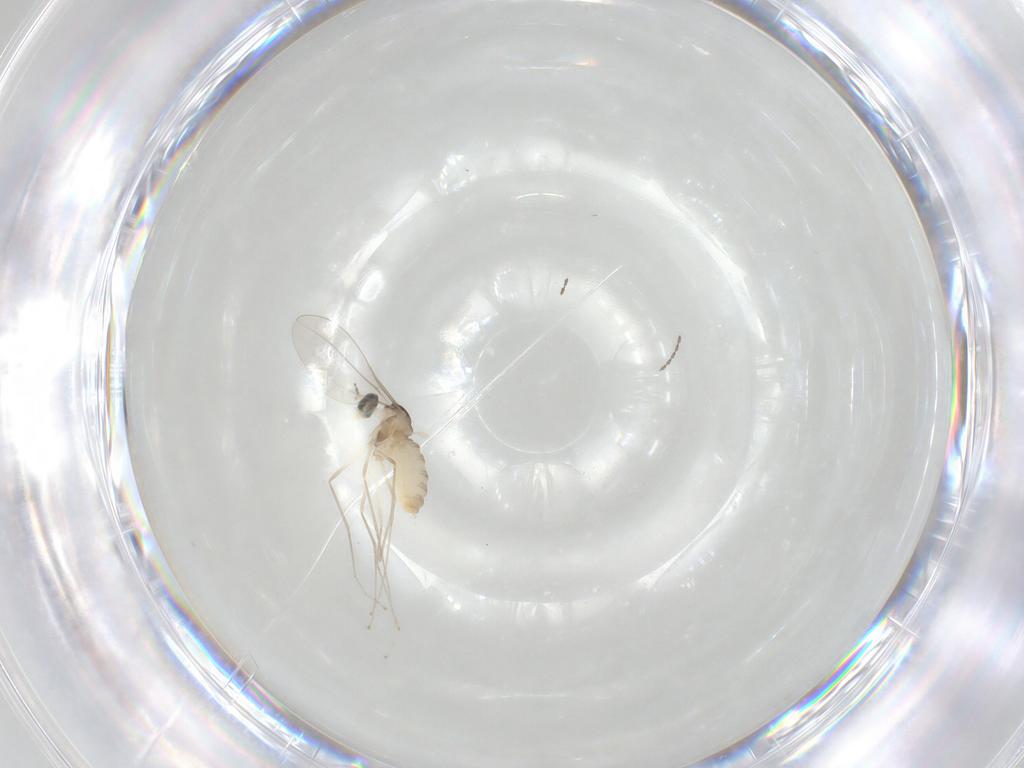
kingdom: Animalia
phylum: Arthropoda
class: Insecta
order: Diptera
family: Cecidomyiidae
